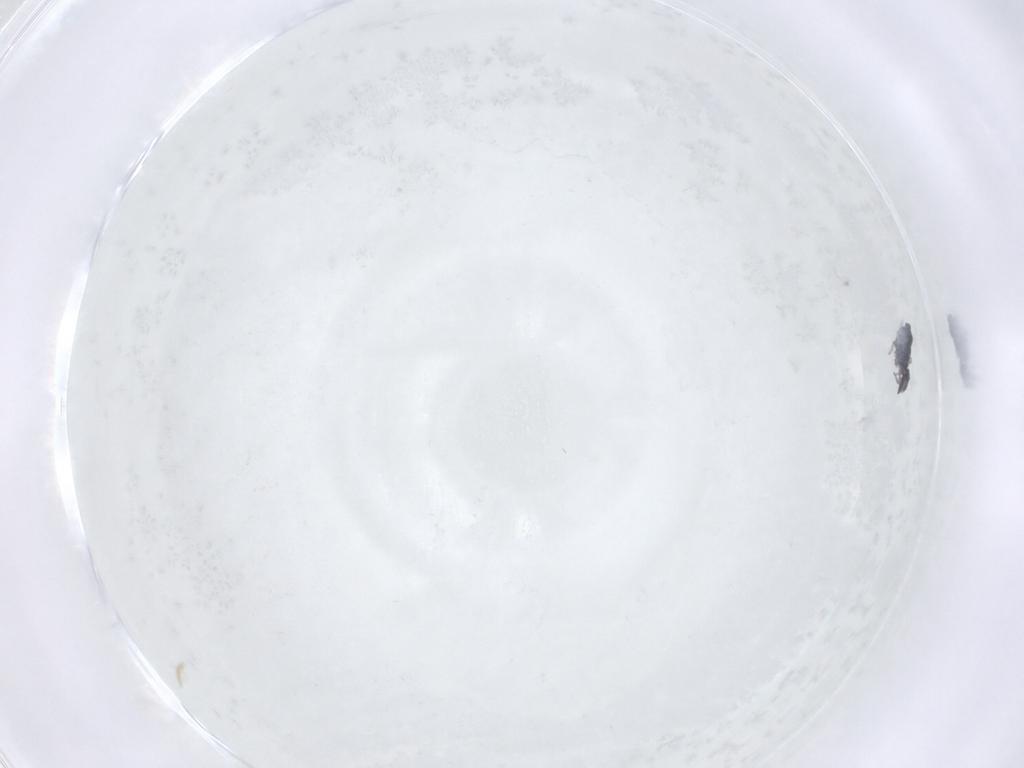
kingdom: Animalia
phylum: Arthropoda
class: Collembola
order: Symphypleona
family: Katiannidae
